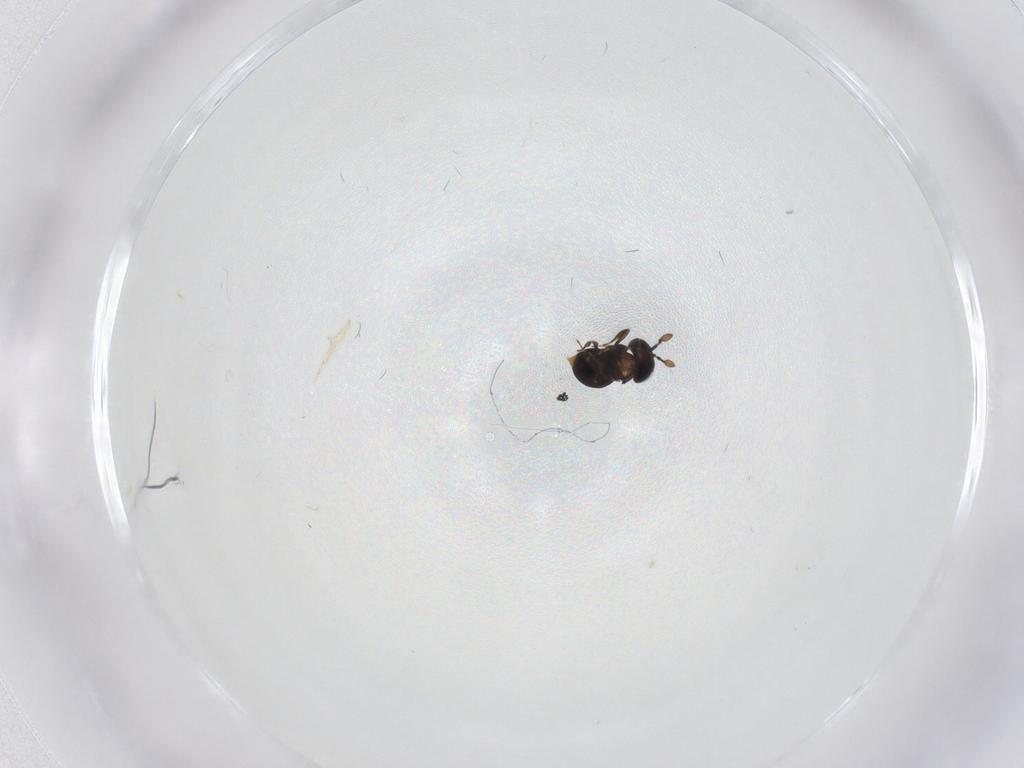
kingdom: Animalia
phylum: Arthropoda
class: Insecta
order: Hymenoptera
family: Scelionidae
